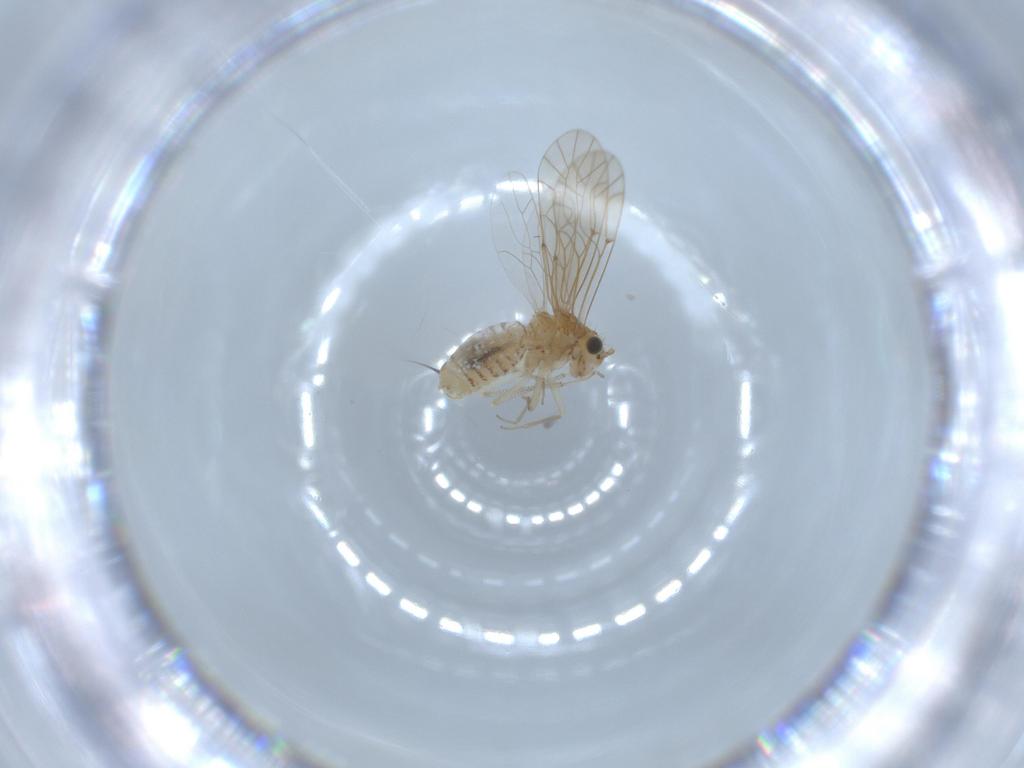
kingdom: Animalia
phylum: Arthropoda
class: Insecta
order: Psocodea
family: Lachesillidae
